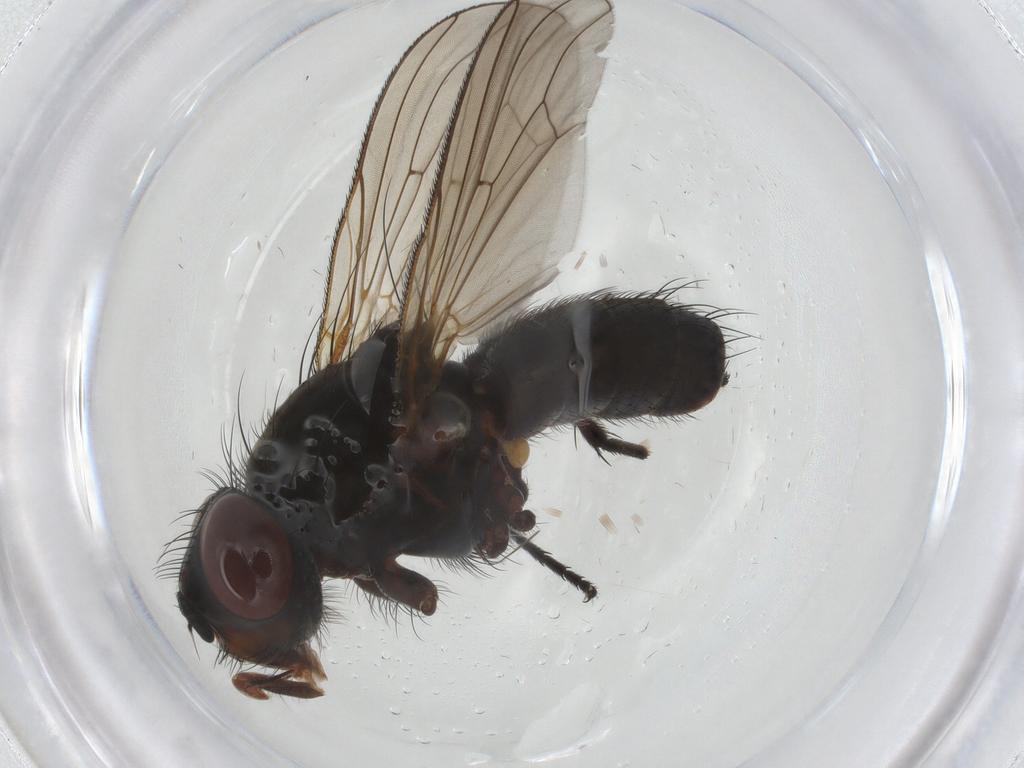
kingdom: Animalia
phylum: Arthropoda
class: Insecta
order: Diptera
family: Anthomyiidae
